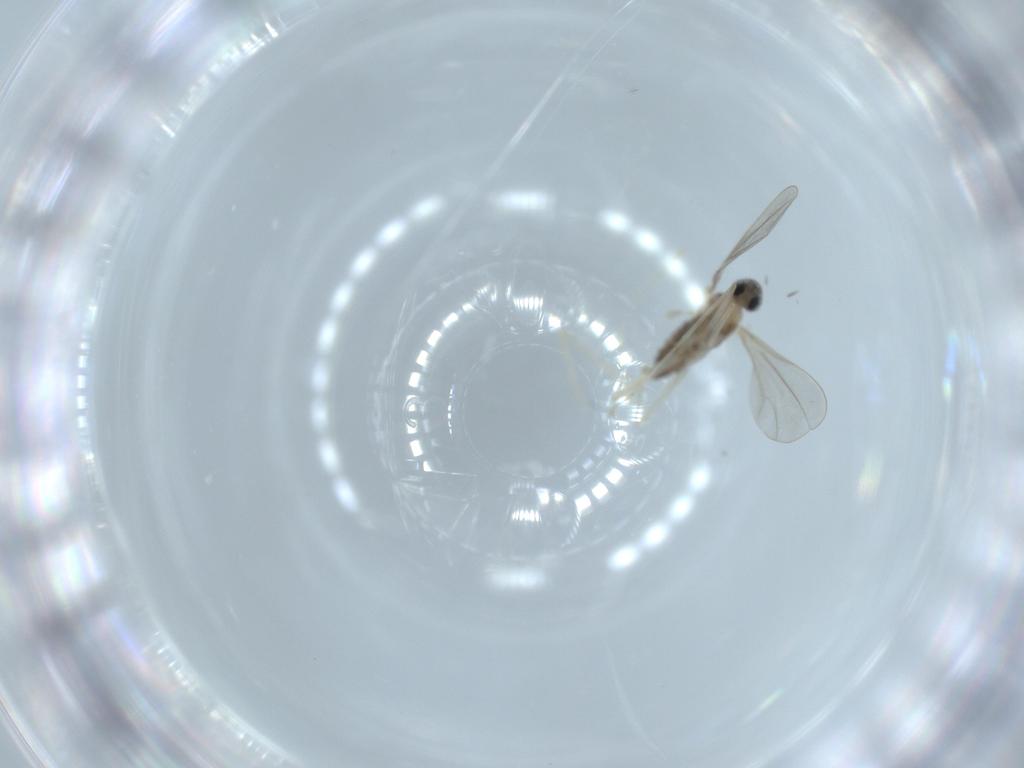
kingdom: Animalia
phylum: Arthropoda
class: Insecta
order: Diptera
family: Cecidomyiidae
